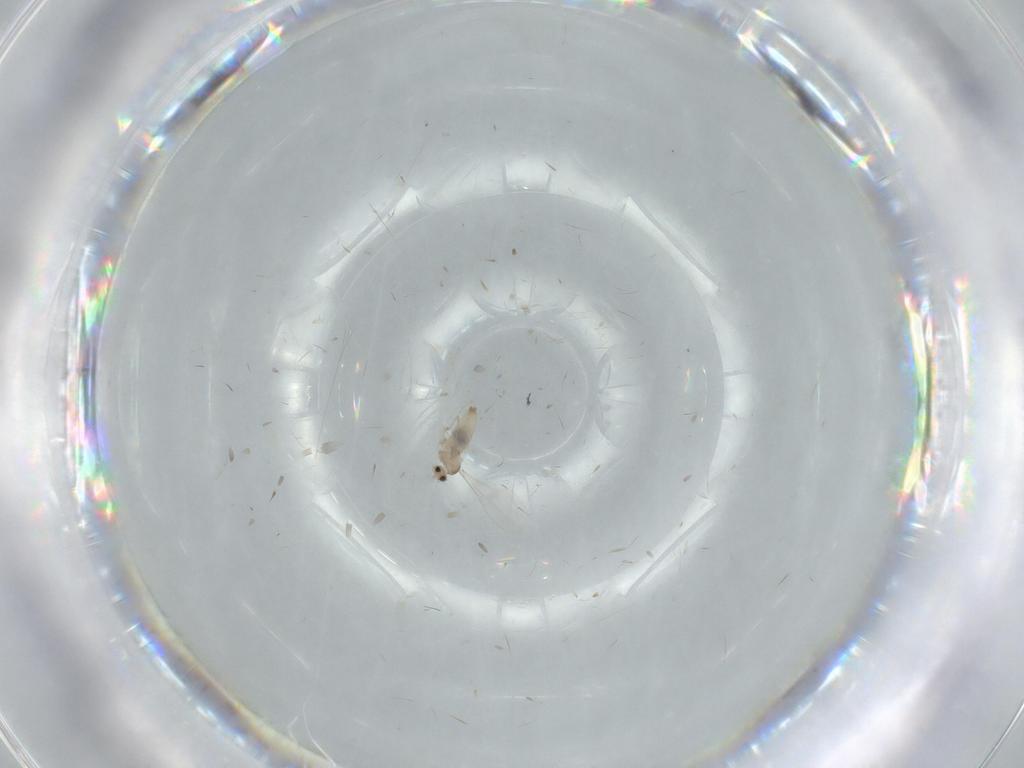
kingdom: Animalia
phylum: Arthropoda
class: Insecta
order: Diptera
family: Cecidomyiidae
